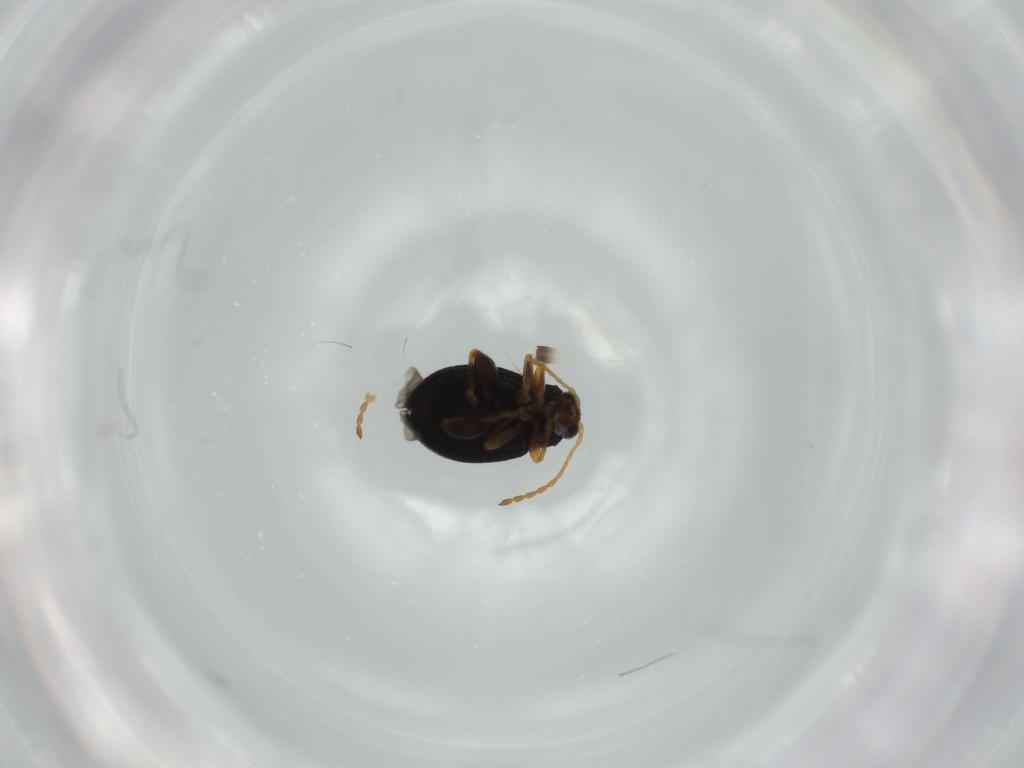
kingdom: Animalia
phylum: Arthropoda
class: Insecta
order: Coleoptera
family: Chrysomelidae
